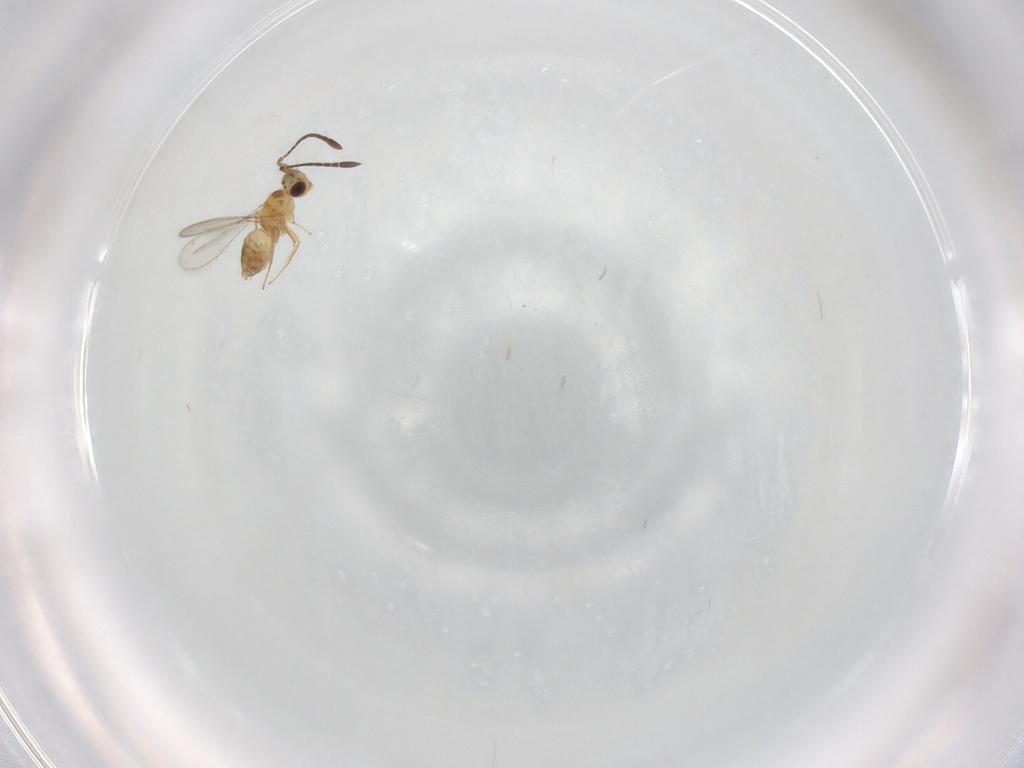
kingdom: Animalia
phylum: Arthropoda
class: Insecta
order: Hymenoptera
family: Mymaridae
